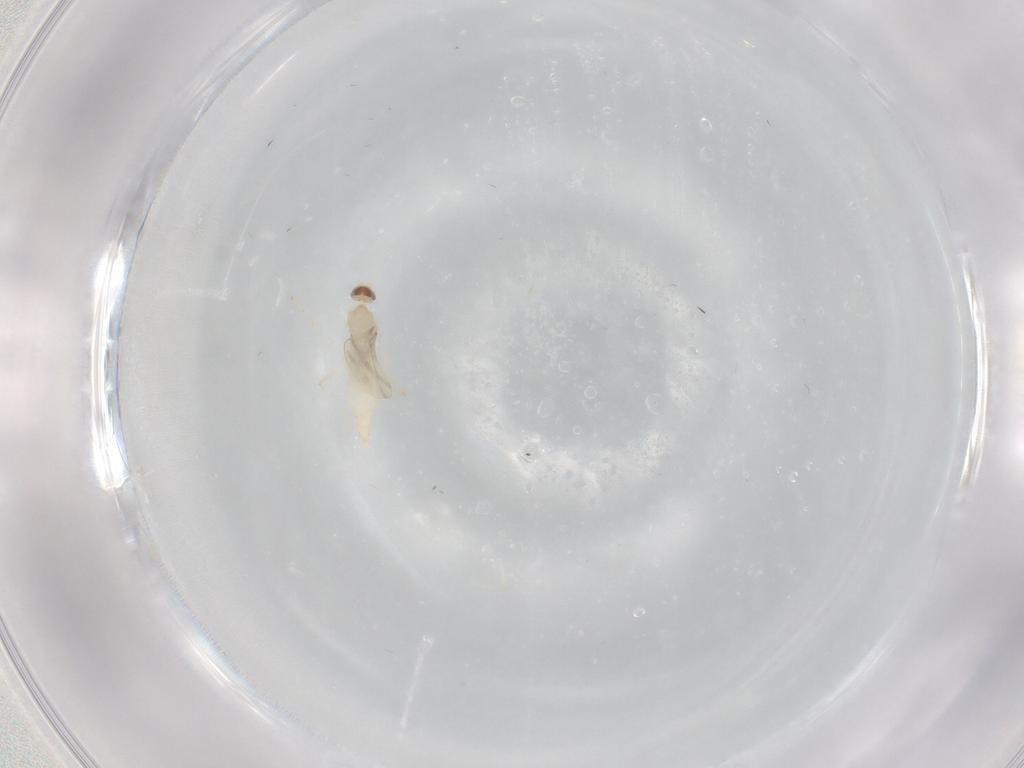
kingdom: Animalia
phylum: Arthropoda
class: Insecta
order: Diptera
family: Cecidomyiidae
